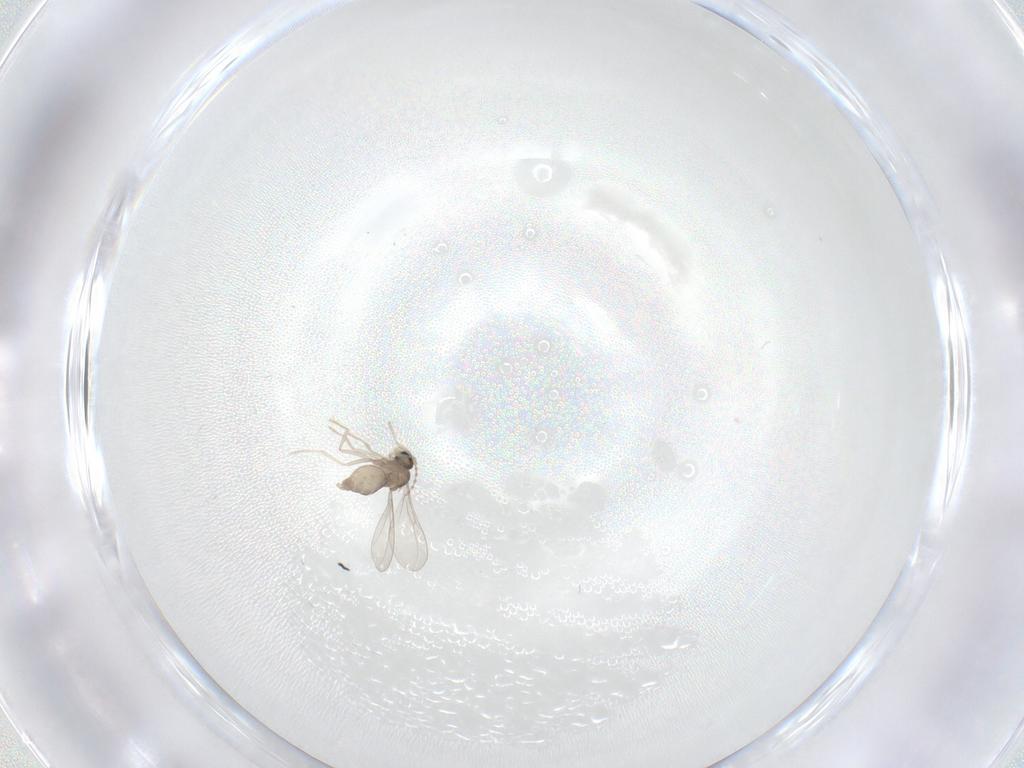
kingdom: Animalia
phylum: Arthropoda
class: Insecta
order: Diptera
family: Cecidomyiidae
